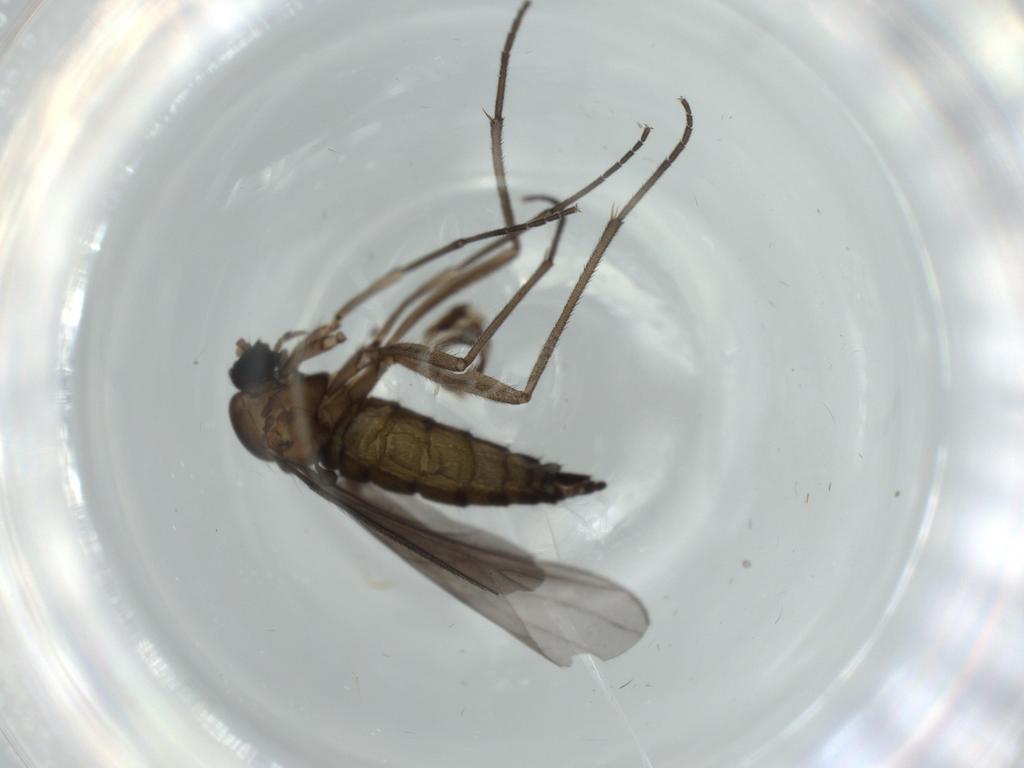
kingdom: Animalia
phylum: Arthropoda
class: Insecta
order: Diptera
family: Sciaridae
